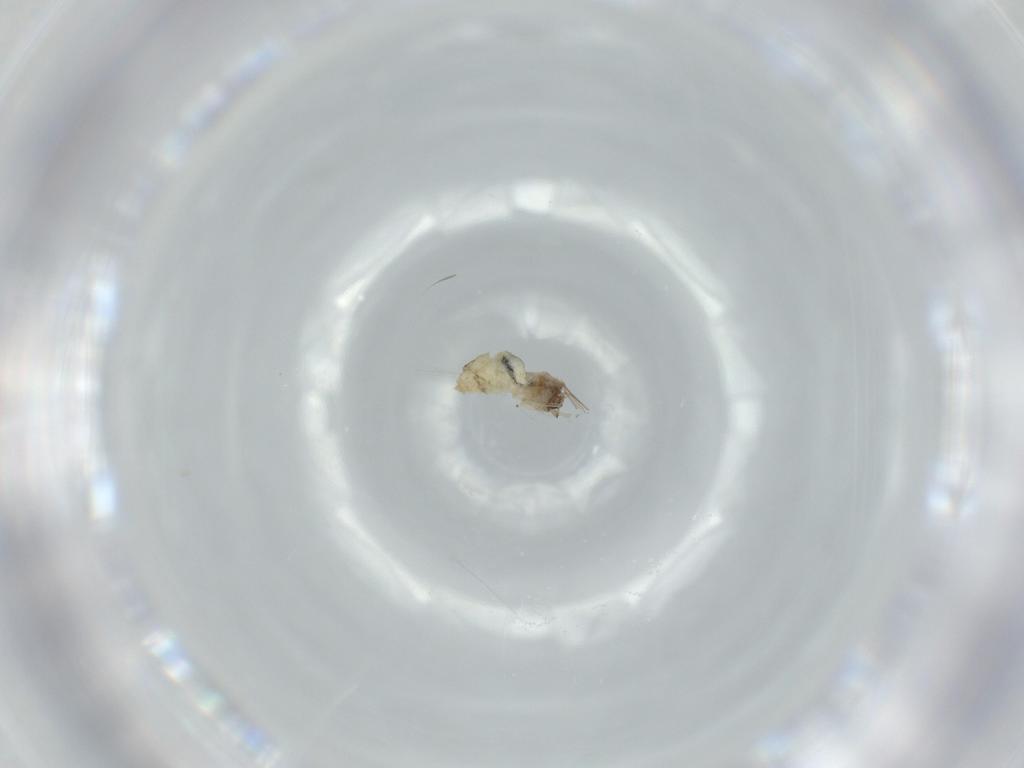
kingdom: Animalia
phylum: Arthropoda
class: Insecta
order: Diptera
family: Cecidomyiidae
